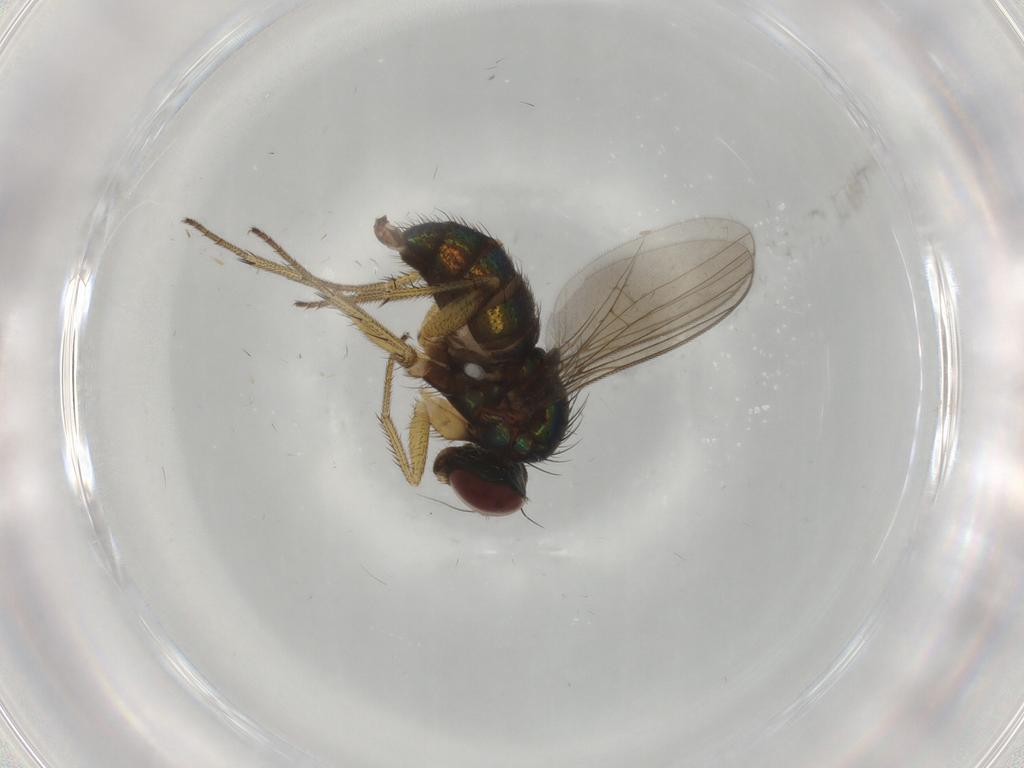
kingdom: Animalia
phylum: Arthropoda
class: Insecta
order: Diptera
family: Dolichopodidae
